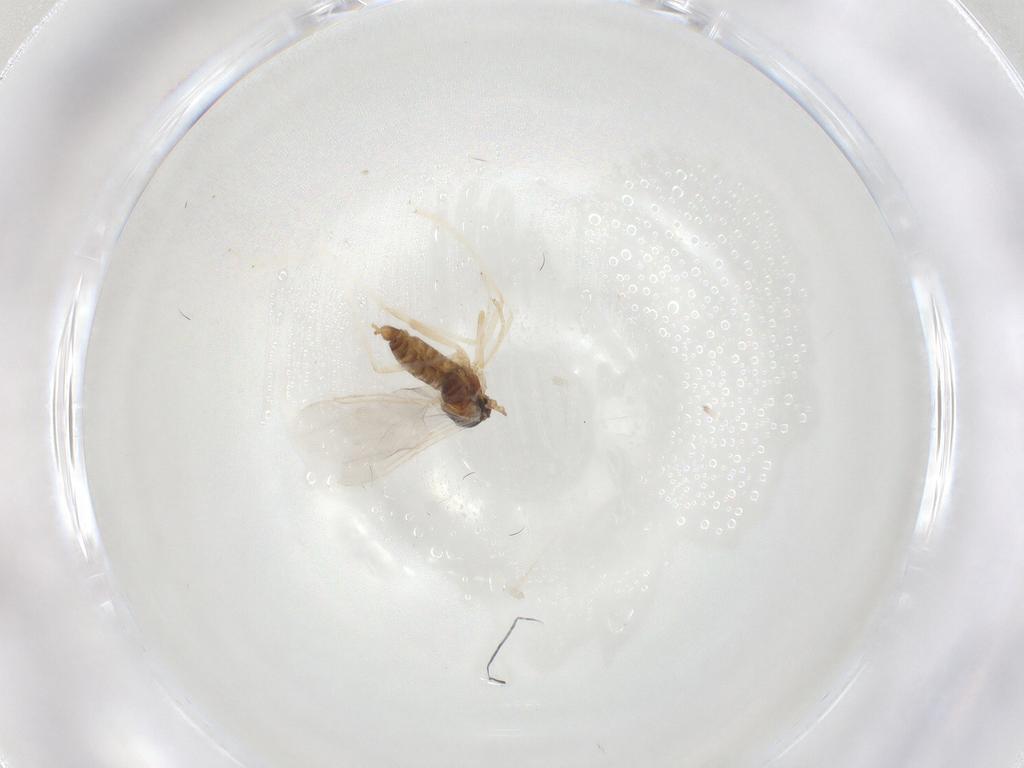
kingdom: Animalia
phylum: Arthropoda
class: Insecta
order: Diptera
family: Cecidomyiidae
